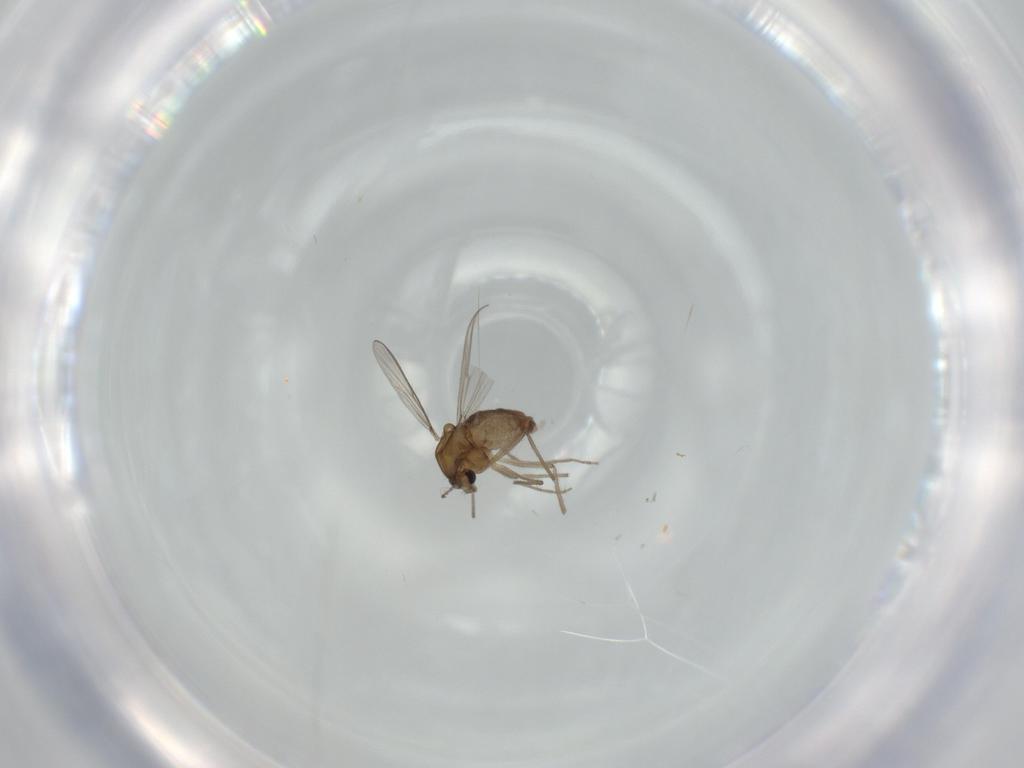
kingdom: Animalia
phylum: Arthropoda
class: Insecta
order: Diptera
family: Chironomidae
